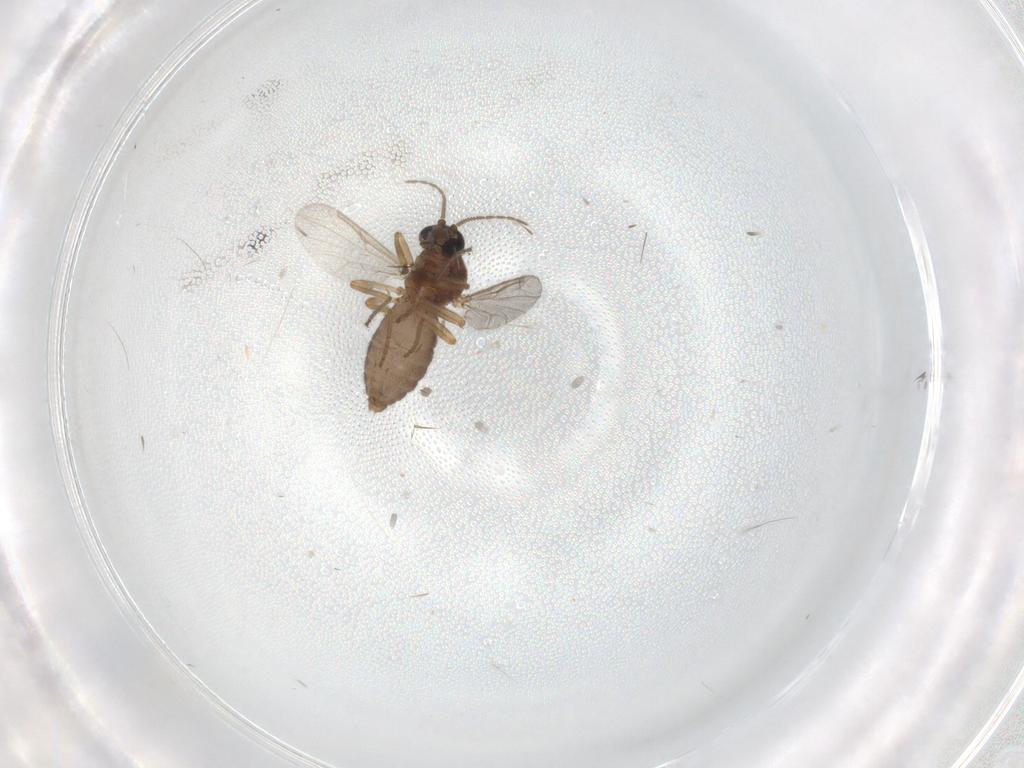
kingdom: Animalia
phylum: Arthropoda
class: Insecta
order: Diptera
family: Ceratopogonidae
